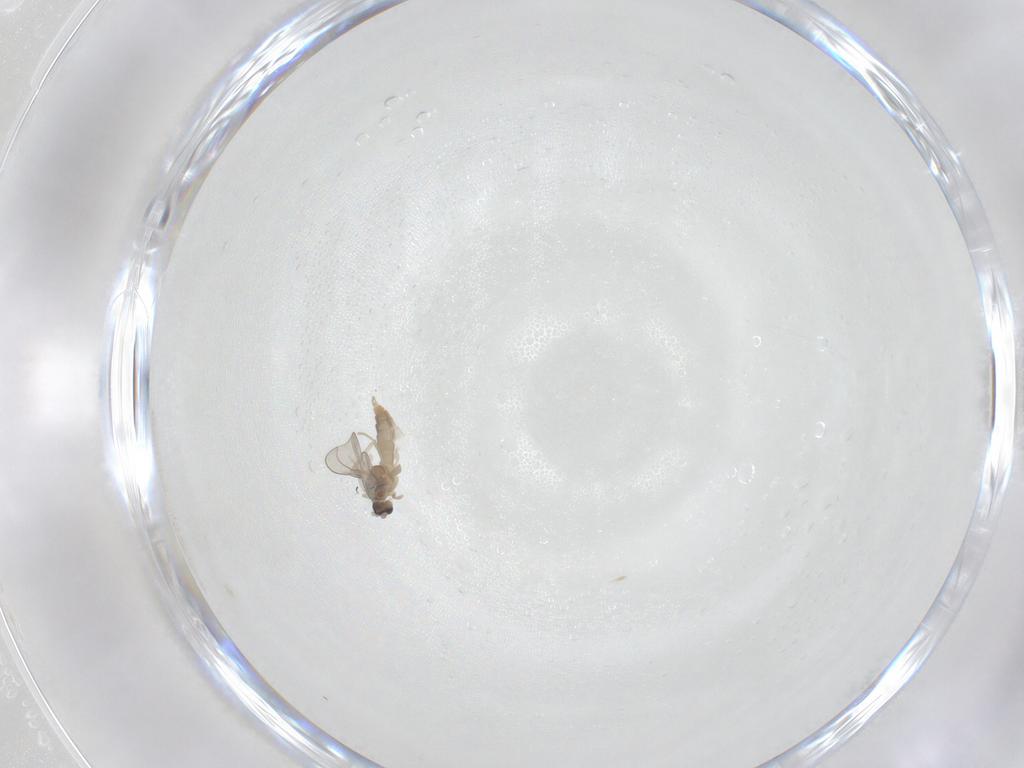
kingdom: Animalia
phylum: Arthropoda
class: Insecta
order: Diptera
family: Cecidomyiidae
